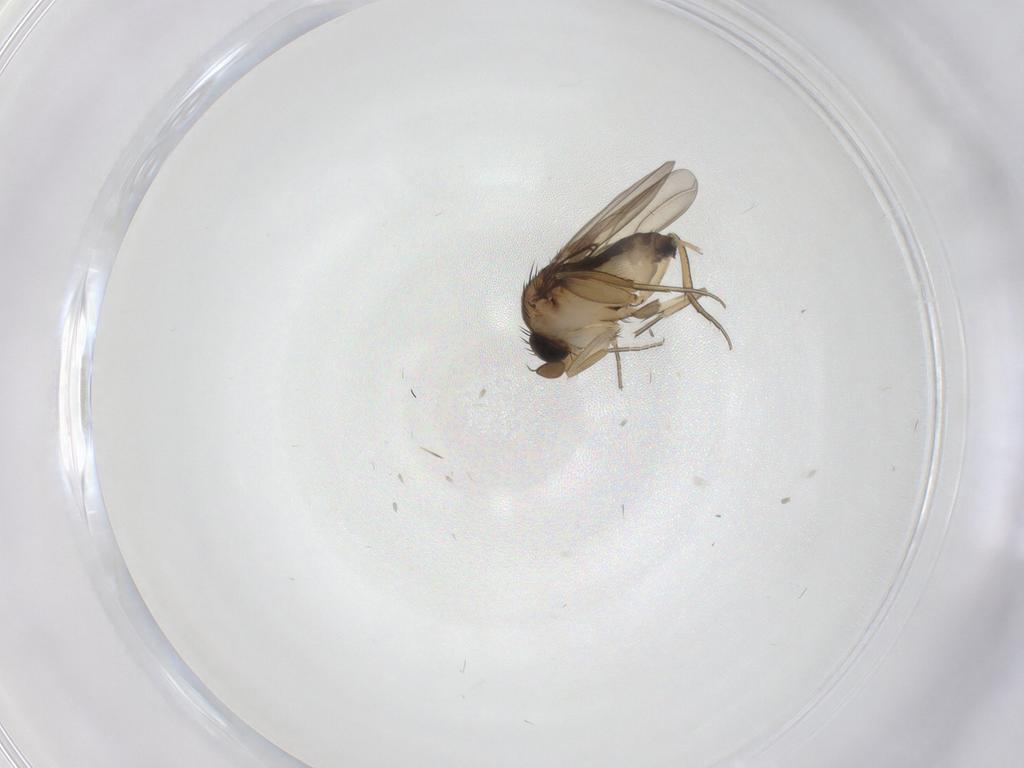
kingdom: Animalia
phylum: Arthropoda
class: Insecta
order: Diptera
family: Phoridae
